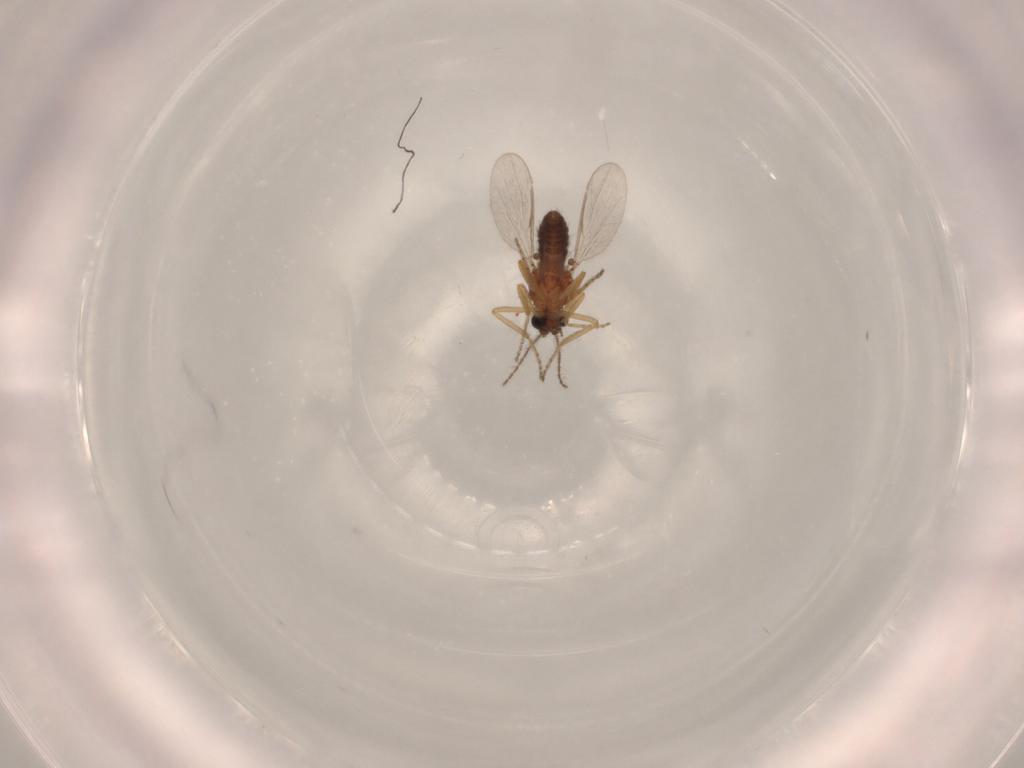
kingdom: Animalia
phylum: Arthropoda
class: Insecta
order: Diptera
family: Ceratopogonidae
